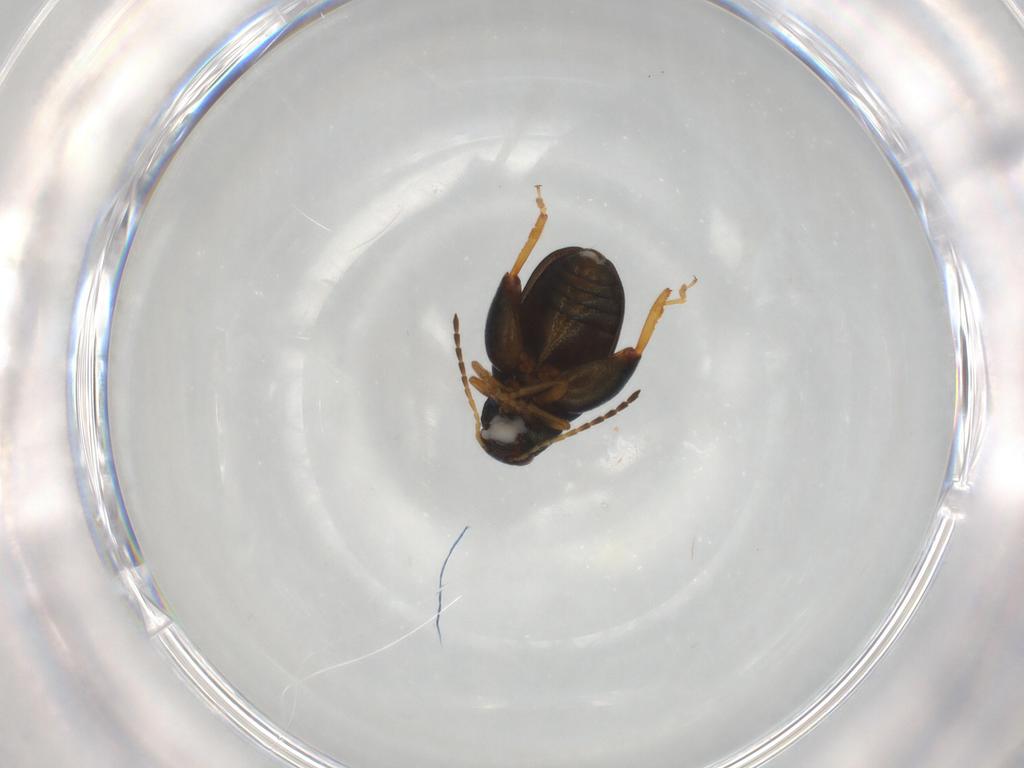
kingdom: Animalia
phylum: Arthropoda
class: Insecta
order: Coleoptera
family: Chrysomelidae
